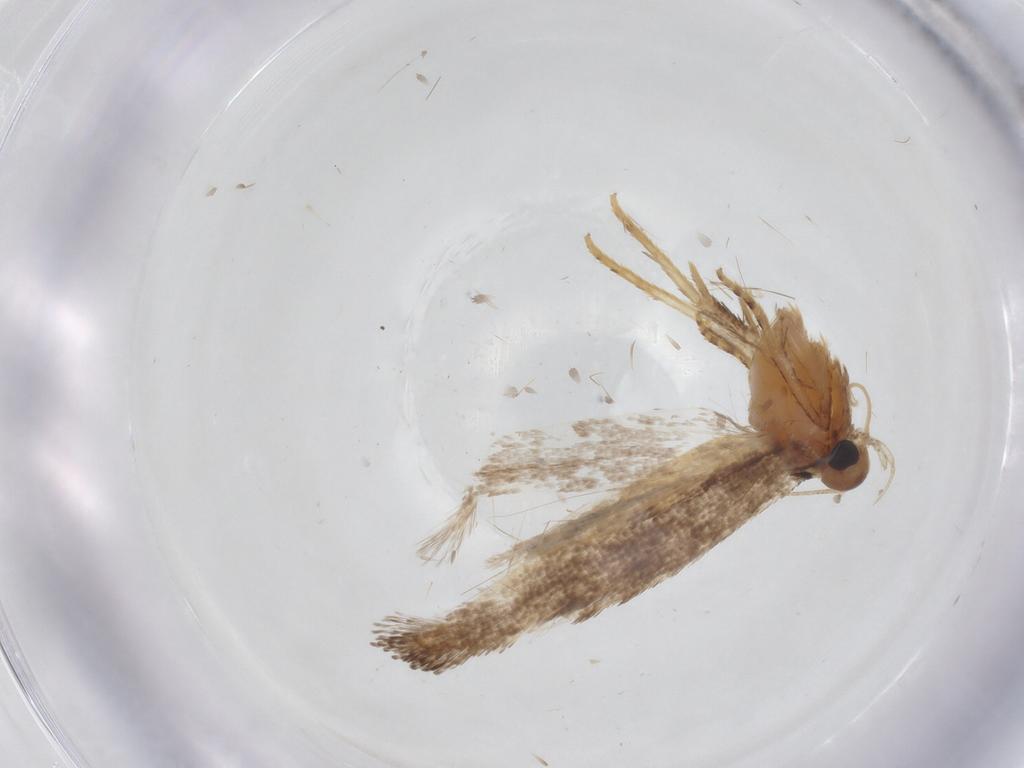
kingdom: Animalia
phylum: Arthropoda
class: Insecta
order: Lepidoptera
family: Crambidae
